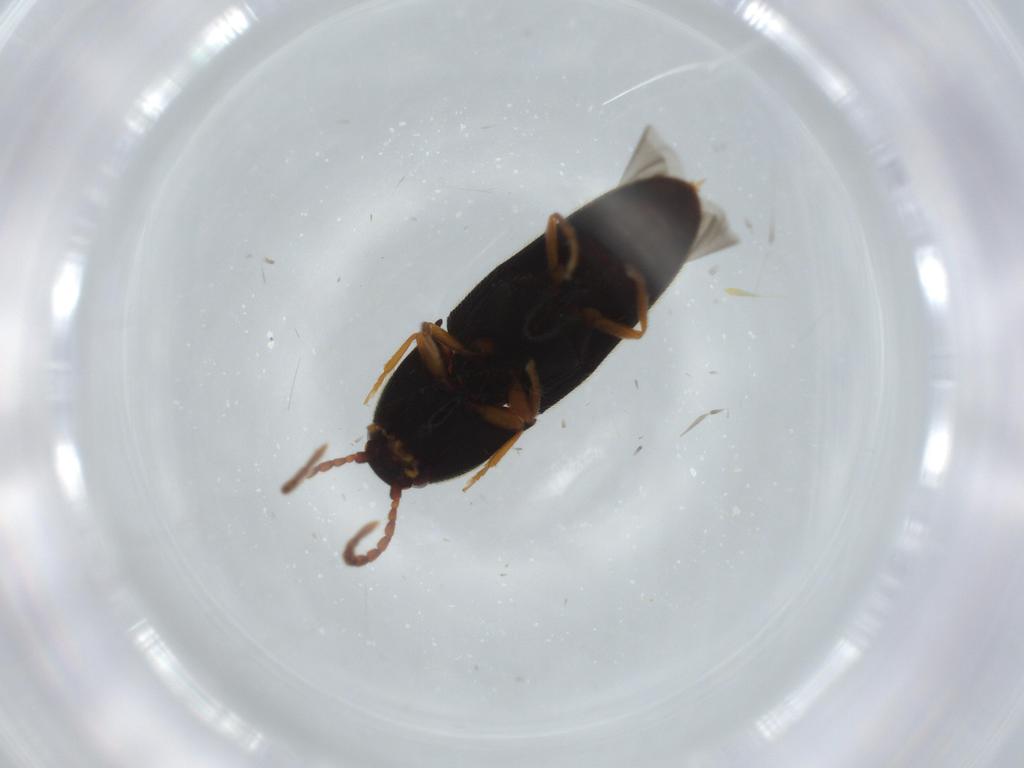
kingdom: Animalia
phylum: Arthropoda
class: Insecta
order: Coleoptera
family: Elateridae
